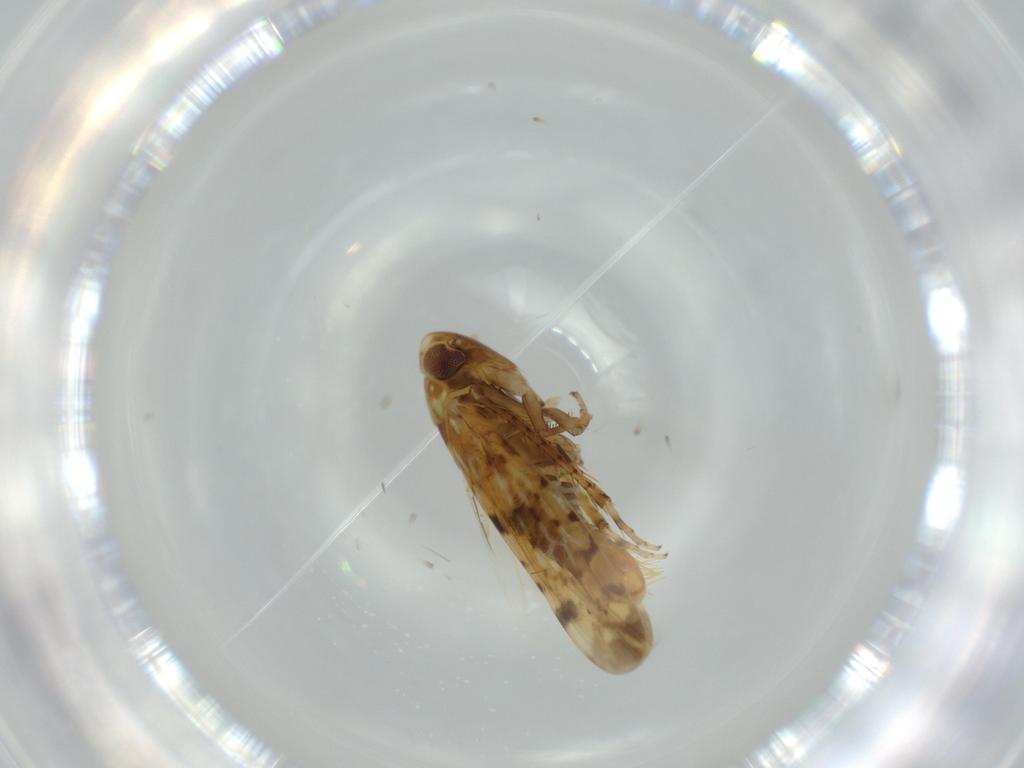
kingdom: Animalia
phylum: Arthropoda
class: Insecta
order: Hemiptera
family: Cicadellidae
